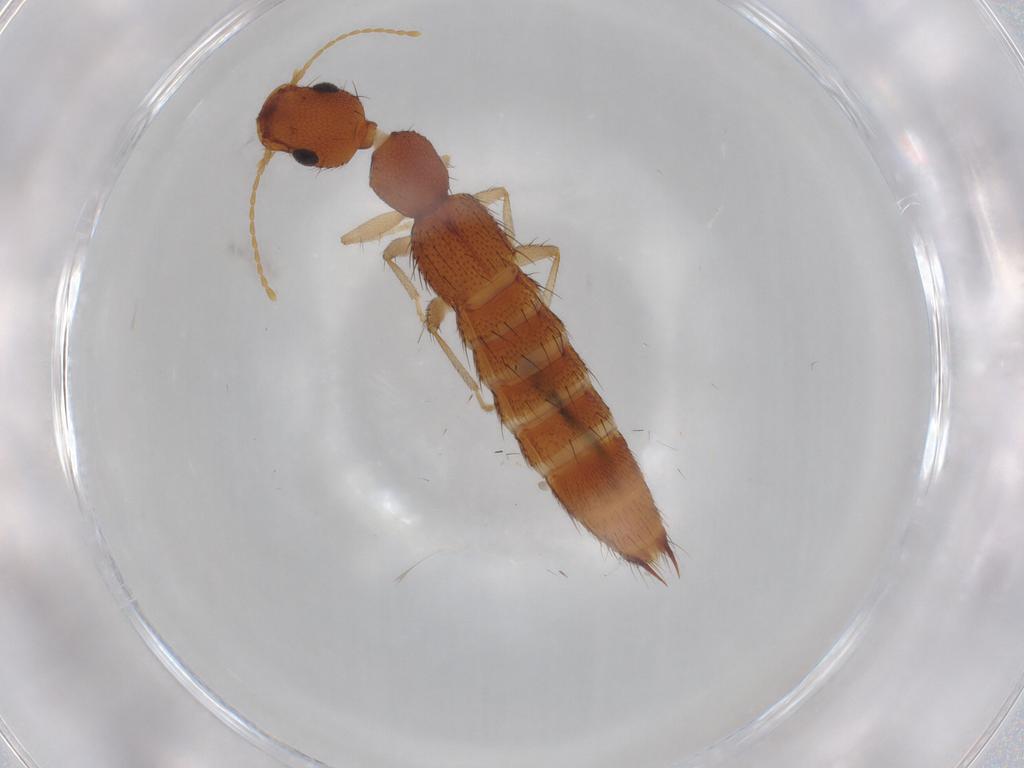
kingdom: Animalia
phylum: Arthropoda
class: Insecta
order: Coleoptera
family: Staphylinidae
